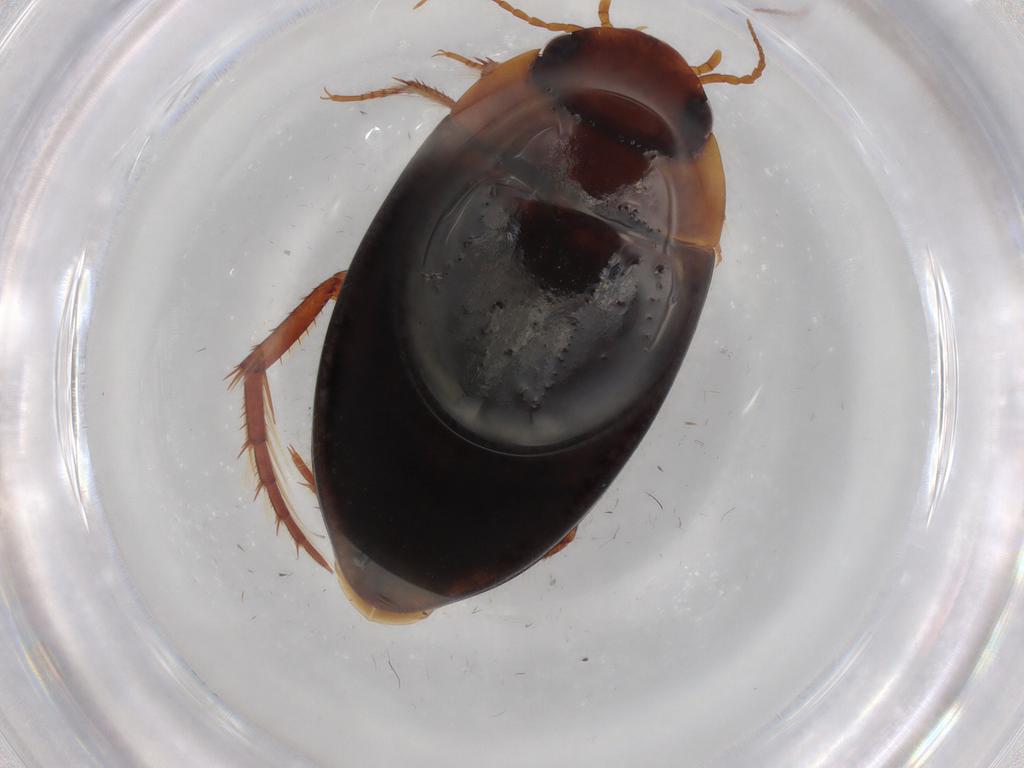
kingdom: Animalia
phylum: Arthropoda
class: Insecta
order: Coleoptera
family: Dytiscidae
